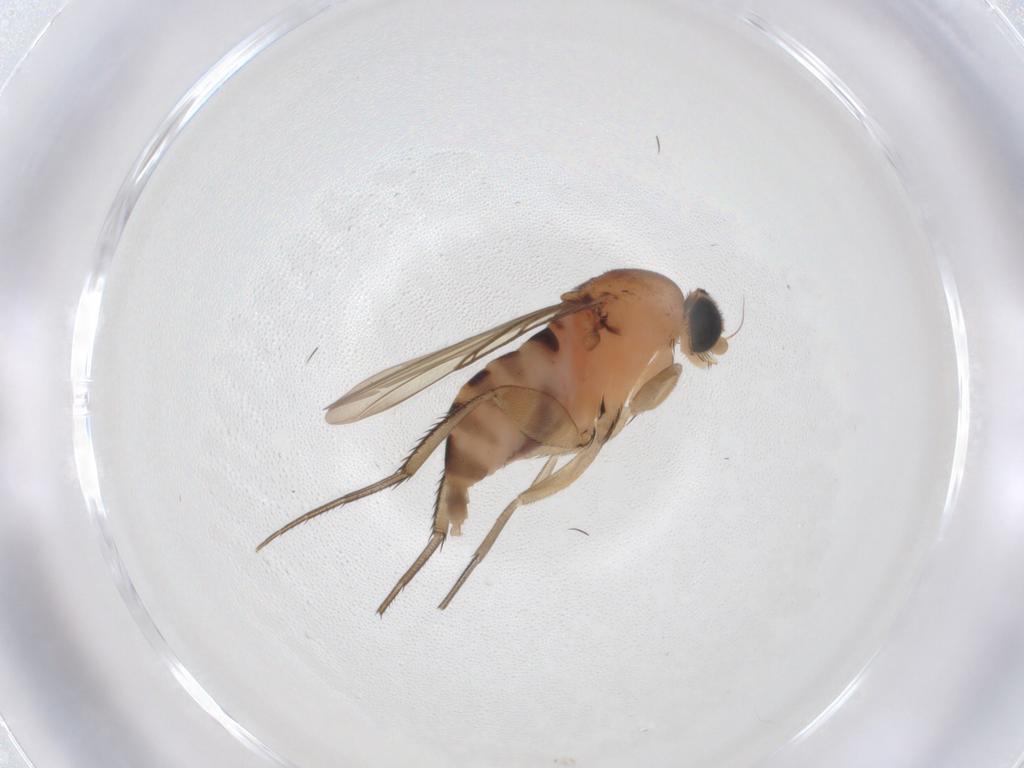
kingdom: Animalia
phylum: Arthropoda
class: Insecta
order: Diptera
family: Phoridae
